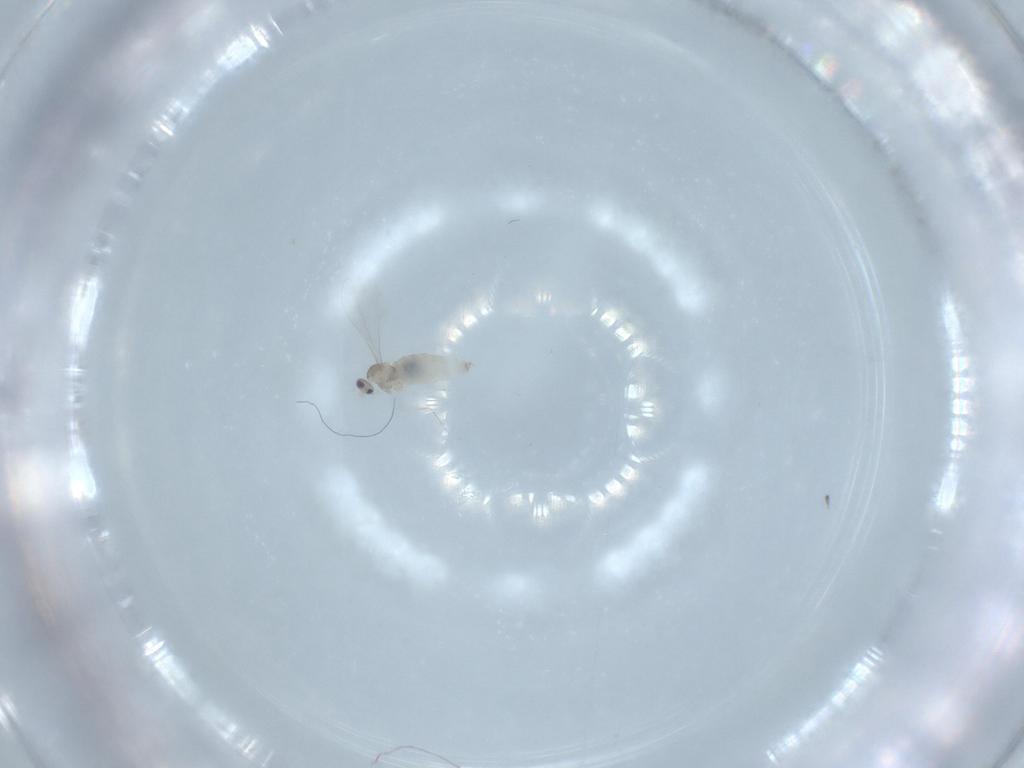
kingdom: Animalia
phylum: Arthropoda
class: Insecta
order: Diptera
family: Cecidomyiidae
